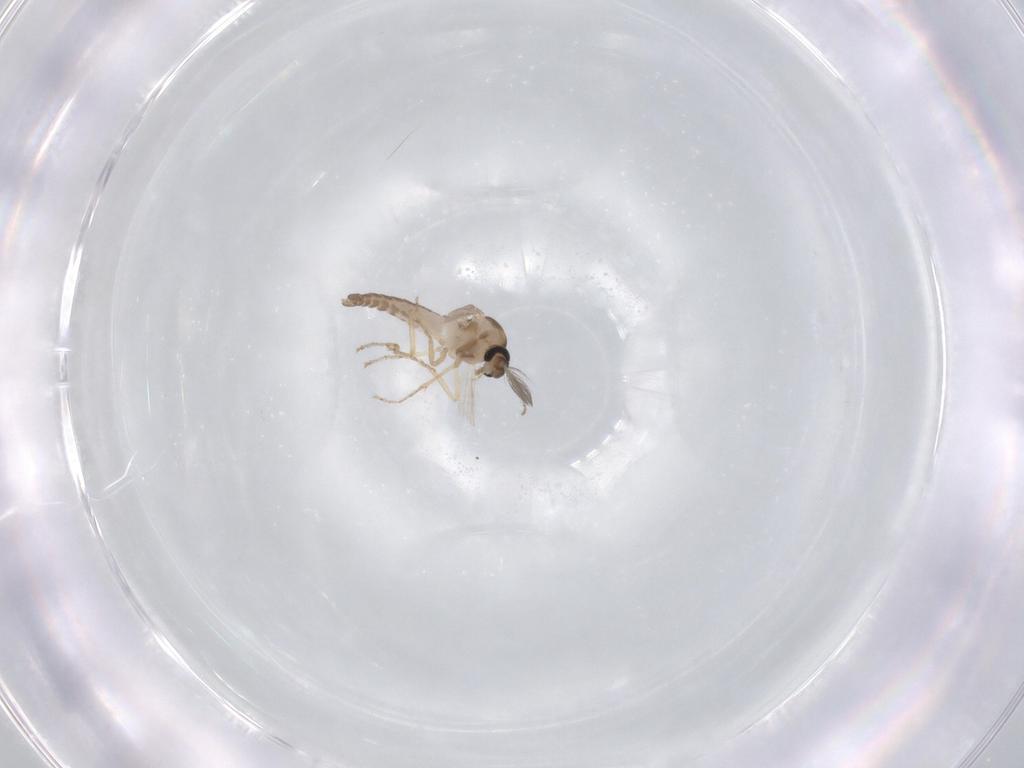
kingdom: Animalia
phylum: Arthropoda
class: Insecta
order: Diptera
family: Ceratopogonidae
